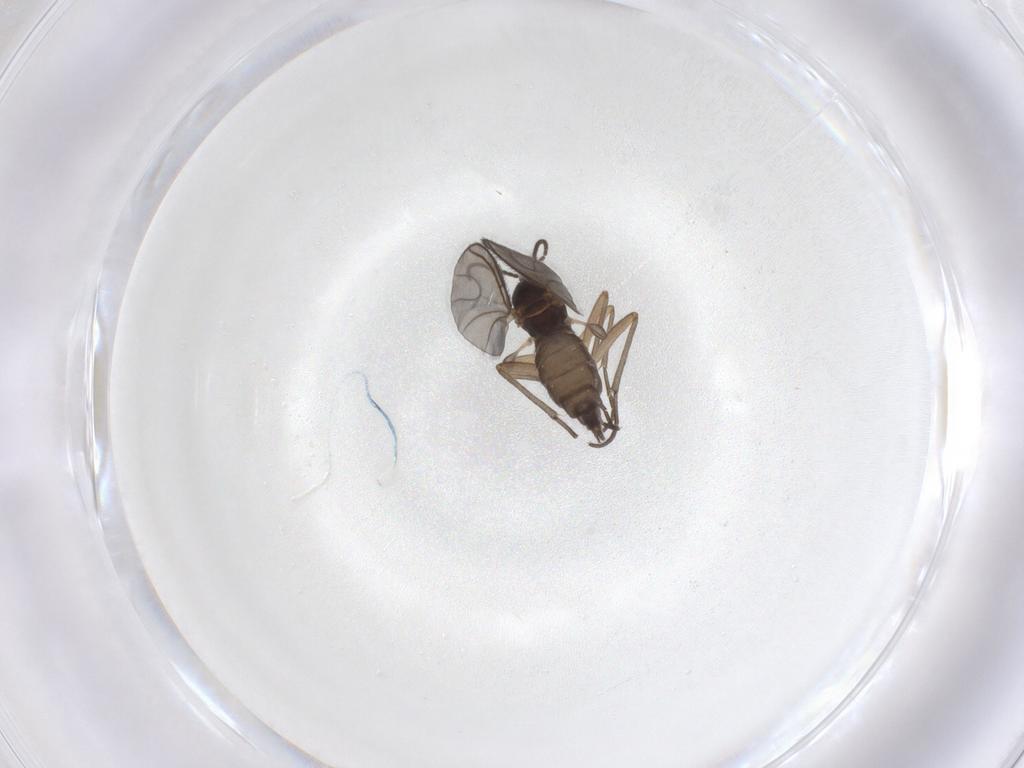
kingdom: Animalia
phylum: Arthropoda
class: Insecta
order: Diptera
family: Sciaridae
